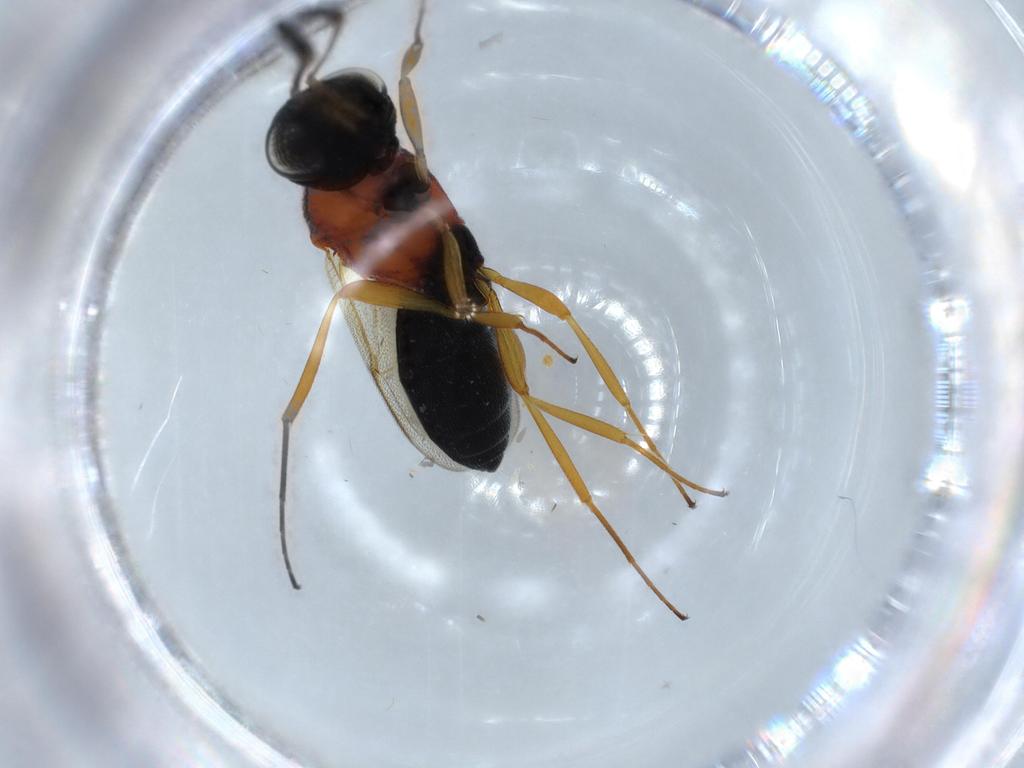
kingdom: Animalia
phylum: Arthropoda
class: Insecta
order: Hymenoptera
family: Scelionidae
